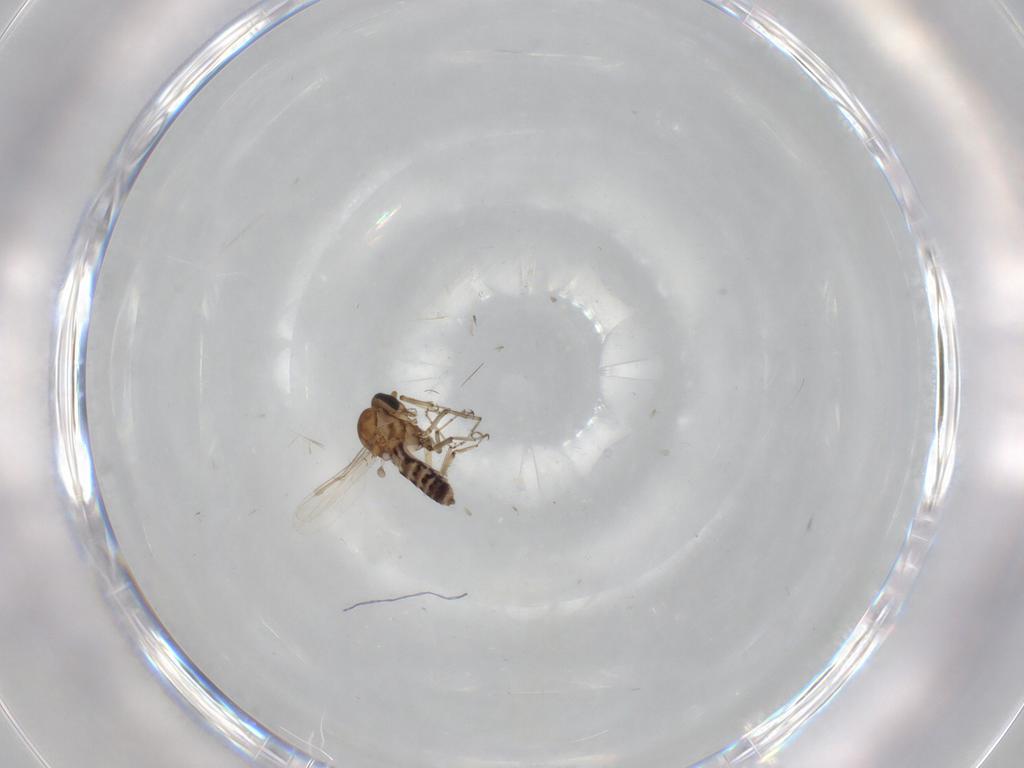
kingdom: Animalia
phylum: Arthropoda
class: Insecta
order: Diptera
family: Ceratopogonidae
